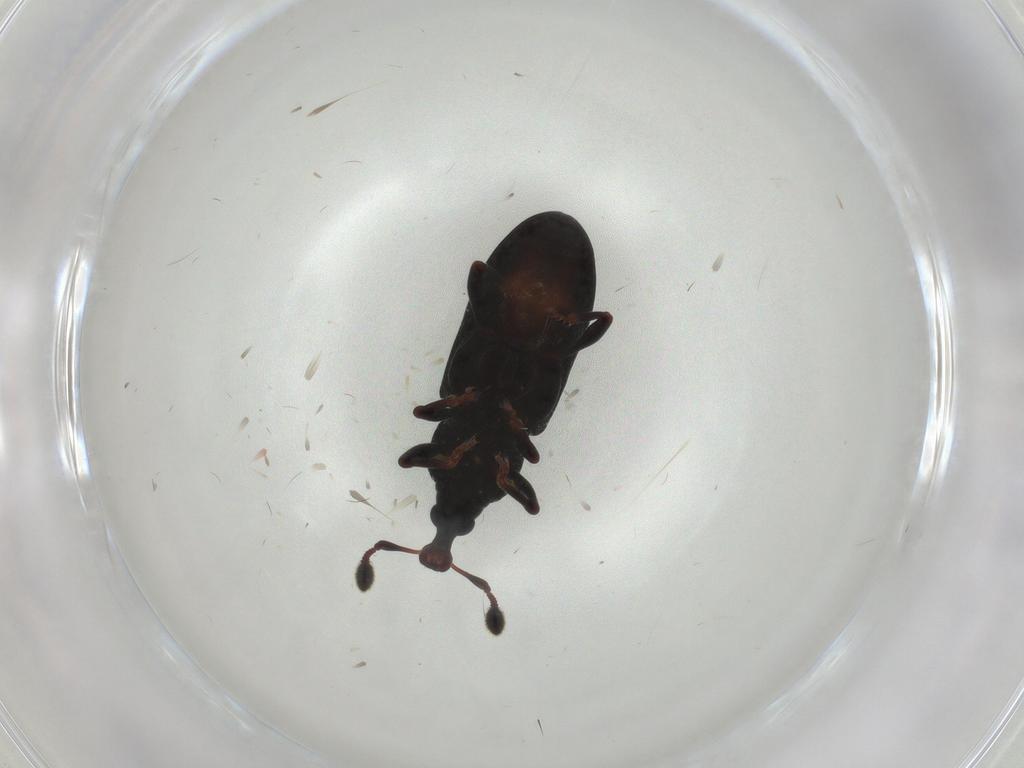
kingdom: Animalia
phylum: Arthropoda
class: Insecta
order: Coleoptera
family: Curculionidae
